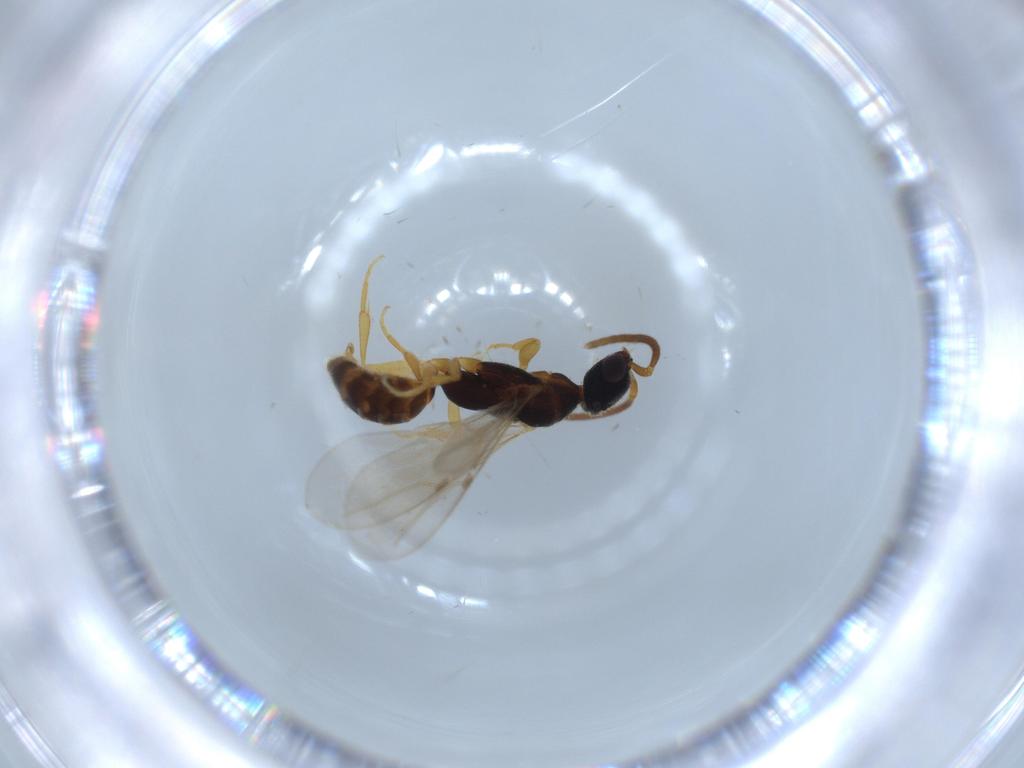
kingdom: Animalia
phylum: Arthropoda
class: Insecta
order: Hymenoptera
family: Bethylidae
